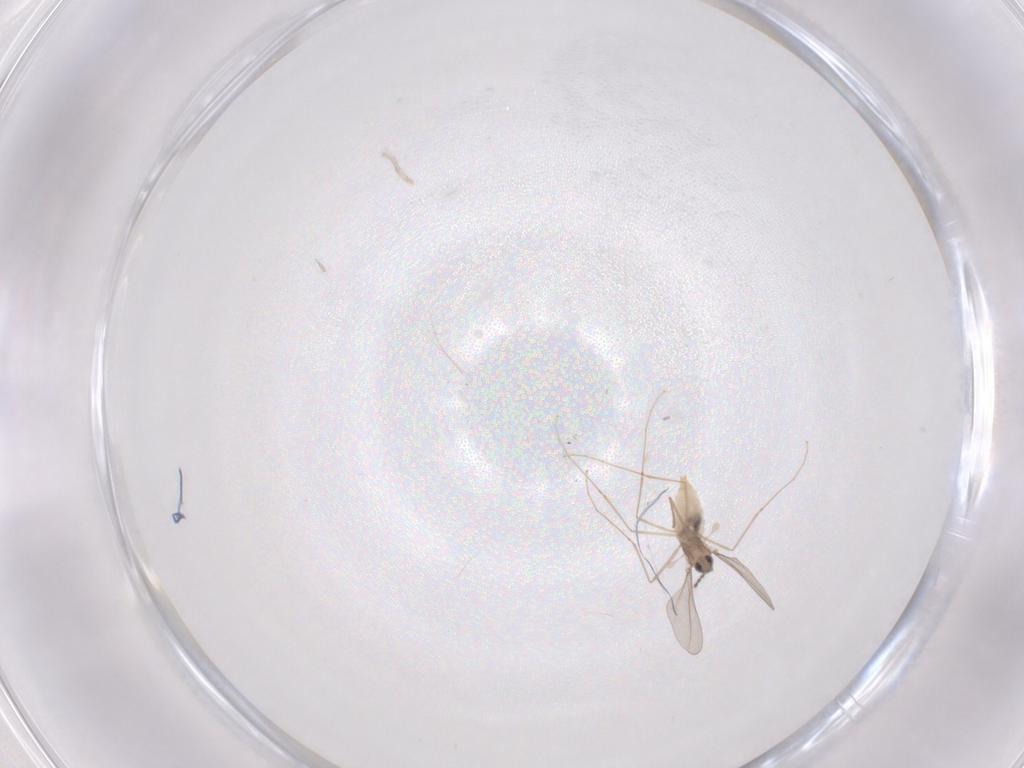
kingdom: Animalia
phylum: Arthropoda
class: Insecta
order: Diptera
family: Cecidomyiidae
